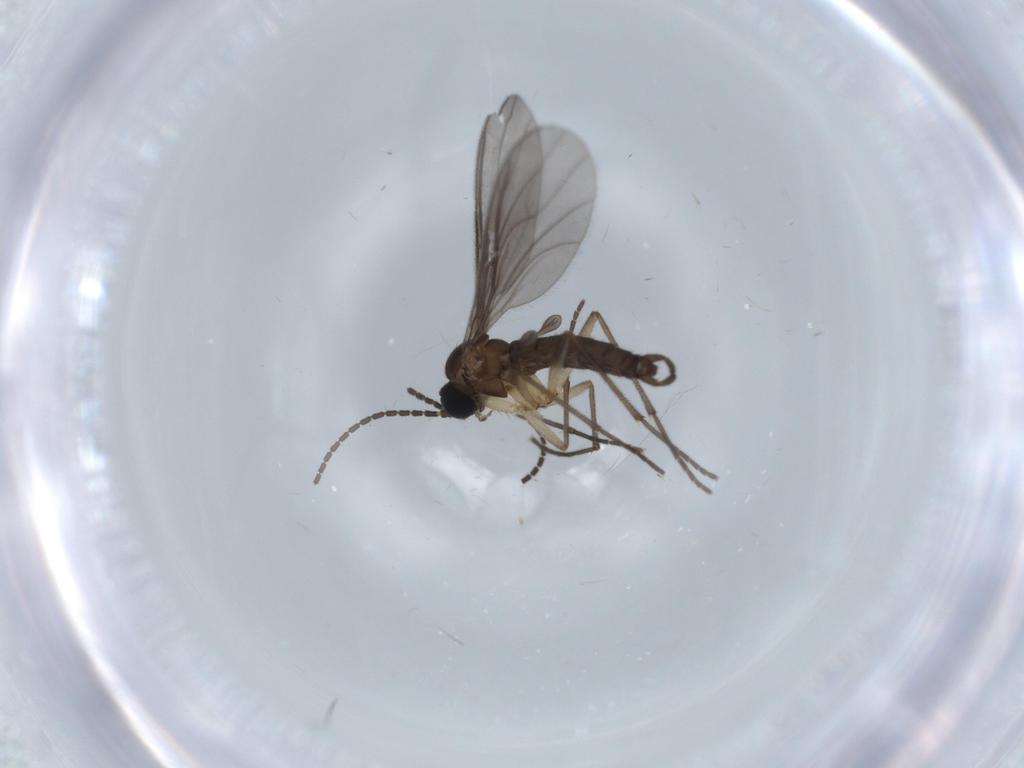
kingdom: Animalia
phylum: Arthropoda
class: Insecta
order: Diptera
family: Sciaridae
